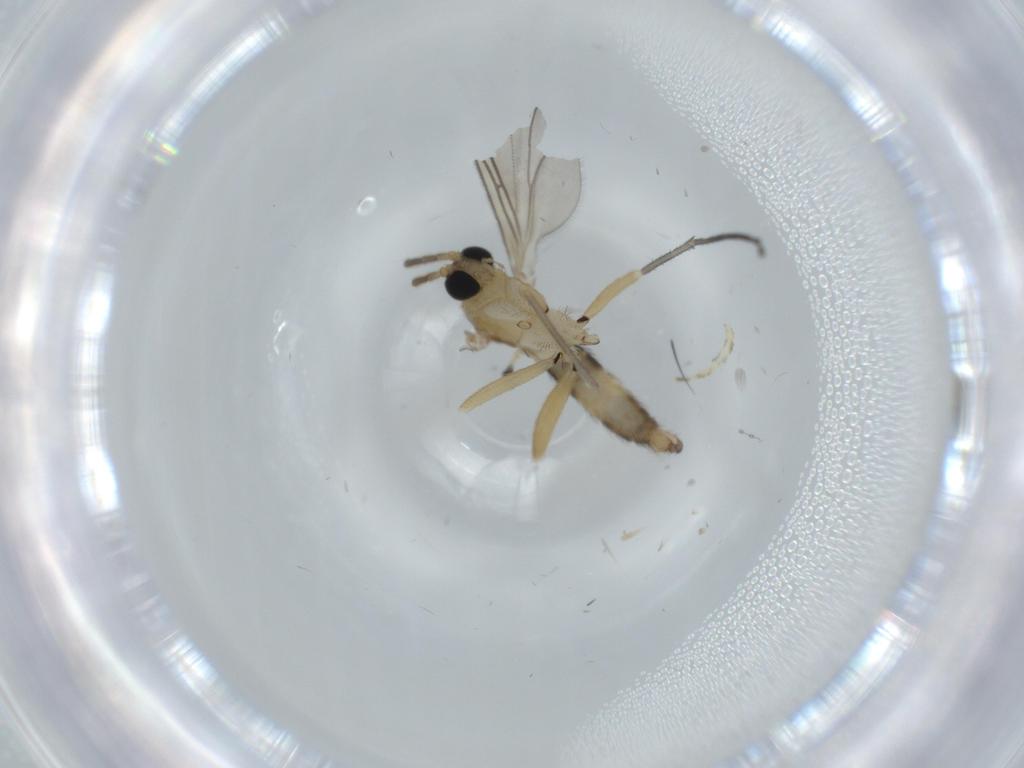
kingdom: Animalia
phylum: Arthropoda
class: Insecta
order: Diptera
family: Sciaridae
